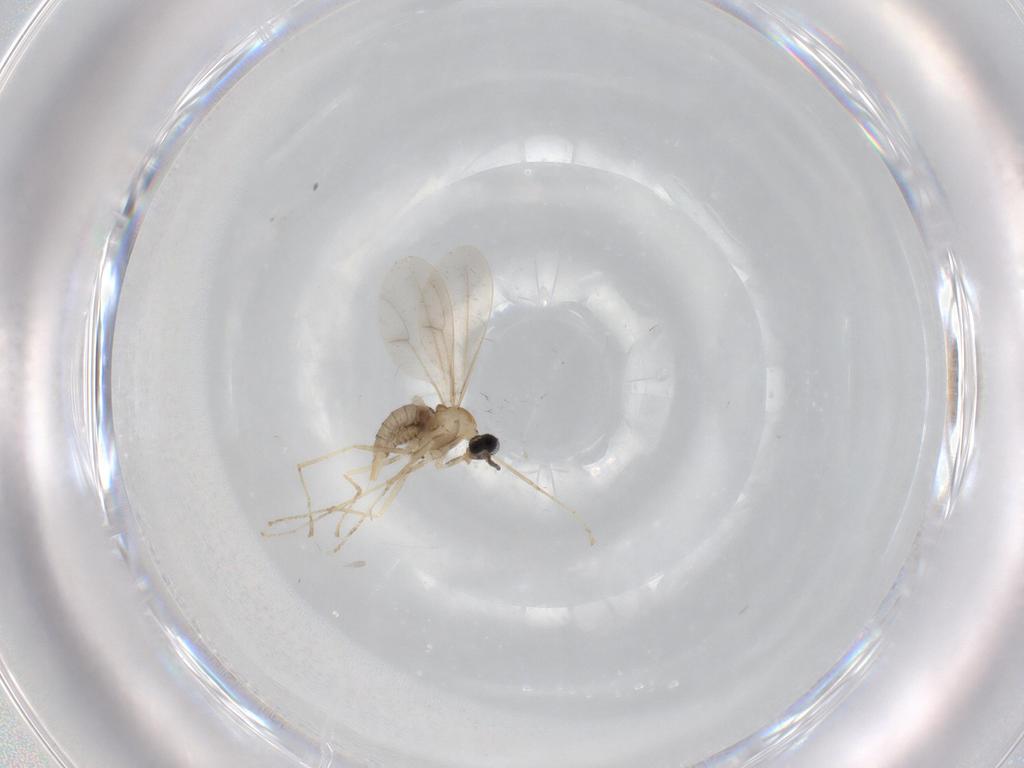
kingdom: Animalia
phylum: Arthropoda
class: Insecta
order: Diptera
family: Cecidomyiidae
